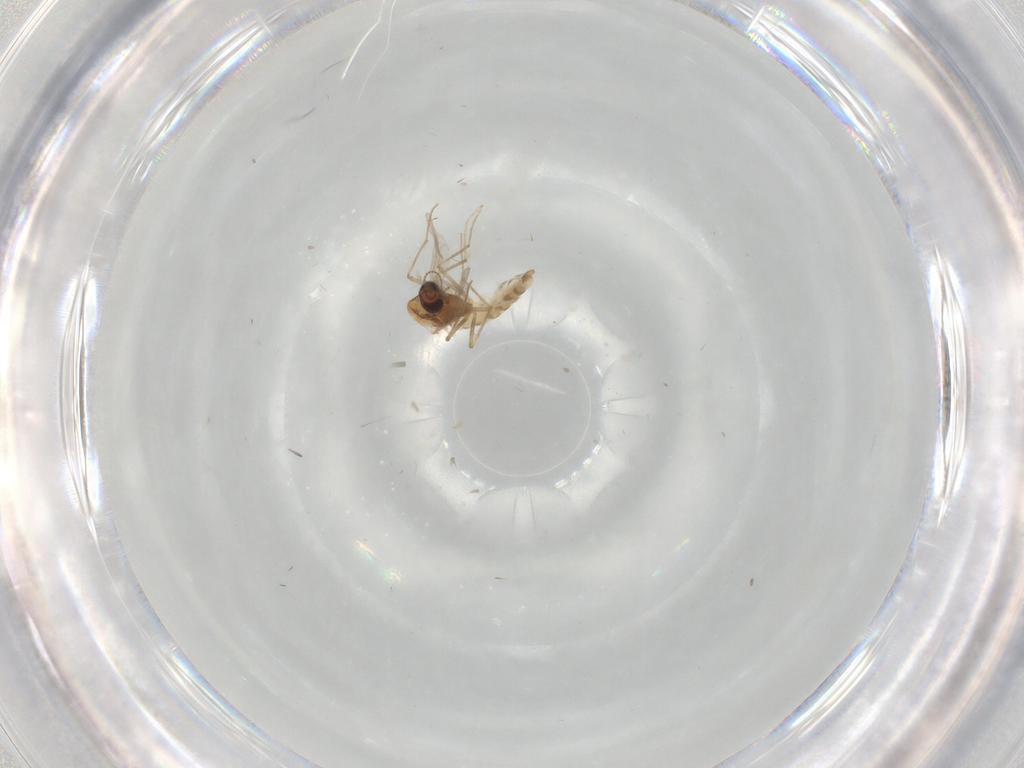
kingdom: Animalia
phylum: Arthropoda
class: Insecta
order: Diptera
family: Chironomidae
